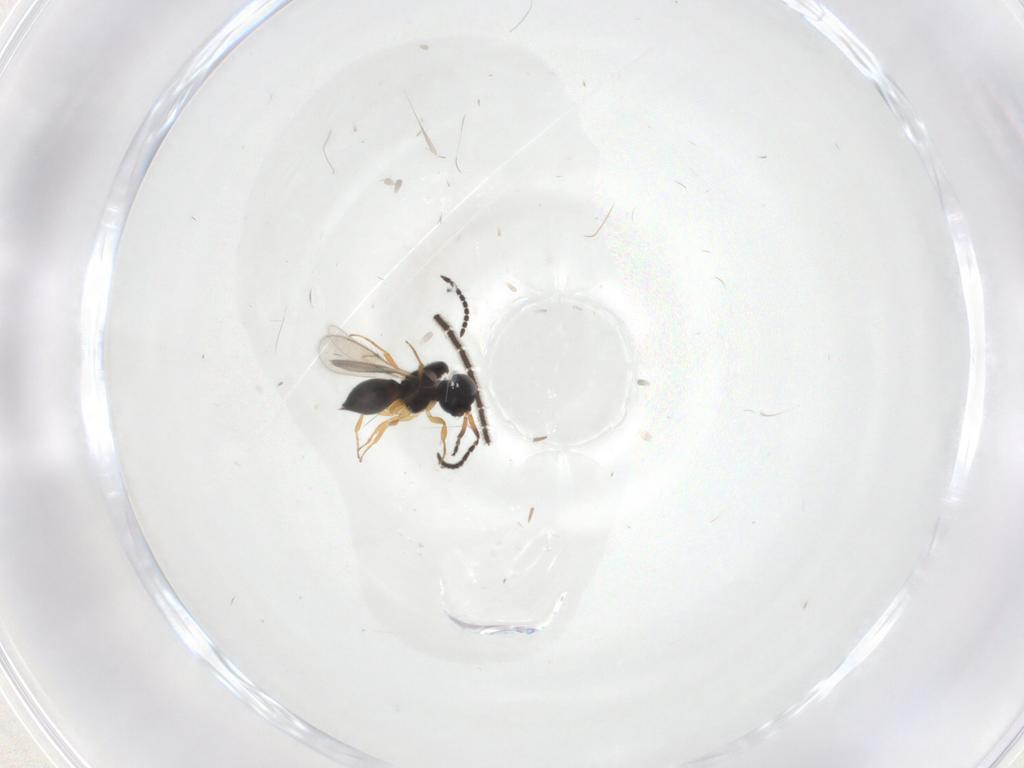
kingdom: Animalia
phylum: Arthropoda
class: Insecta
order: Hymenoptera
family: Scelionidae
